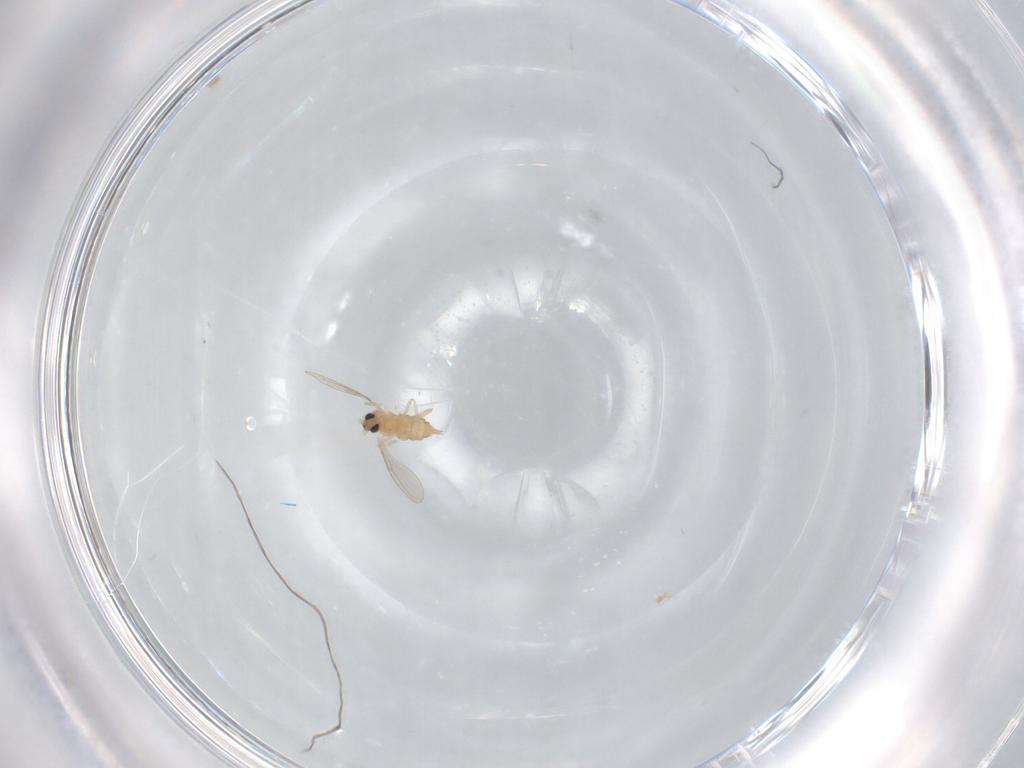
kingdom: Animalia
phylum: Arthropoda
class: Insecta
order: Diptera
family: Cecidomyiidae
